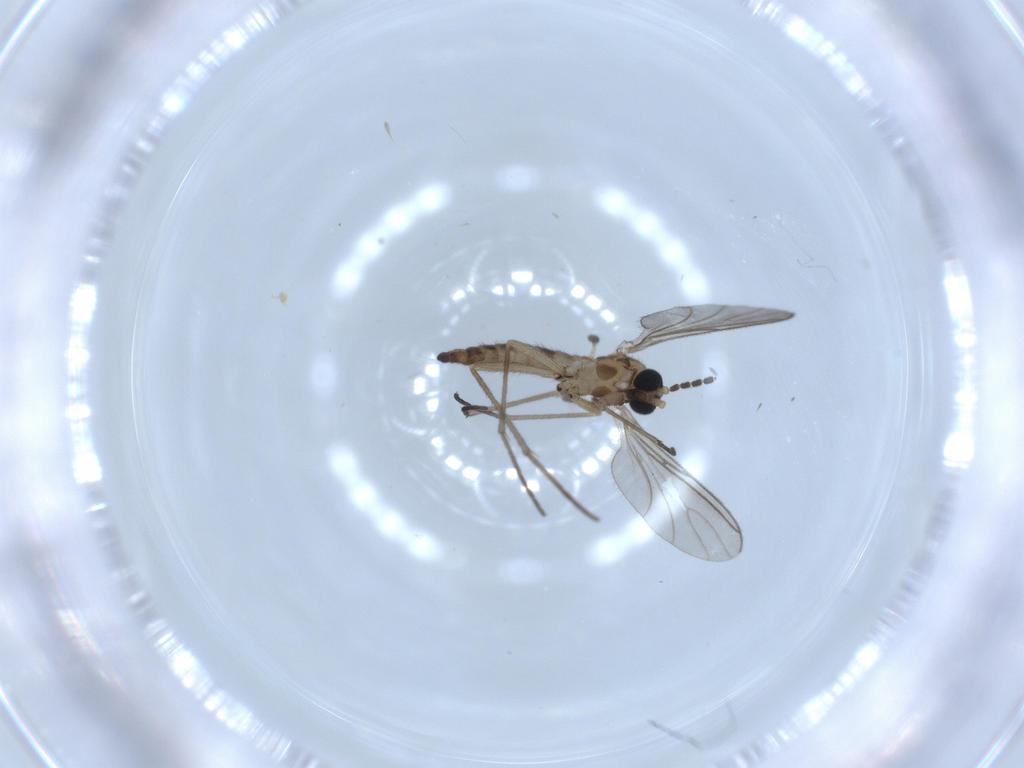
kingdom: Animalia
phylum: Arthropoda
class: Insecta
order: Diptera
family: Sciaridae
